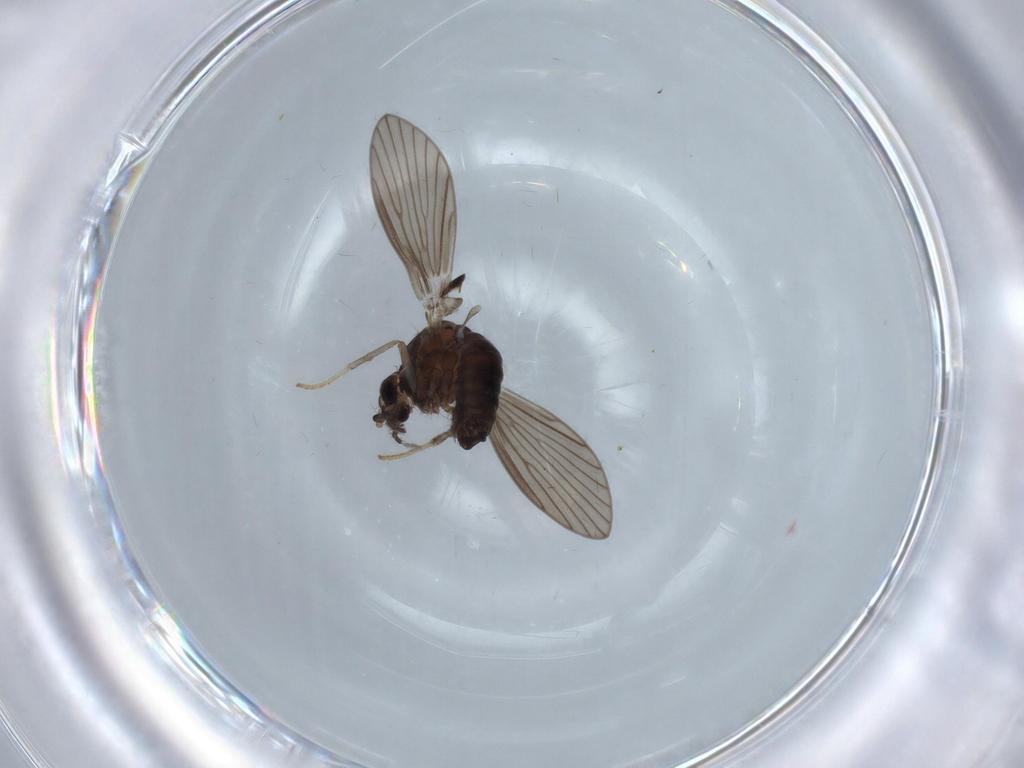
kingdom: Animalia
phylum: Arthropoda
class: Insecta
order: Diptera
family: Psychodidae
